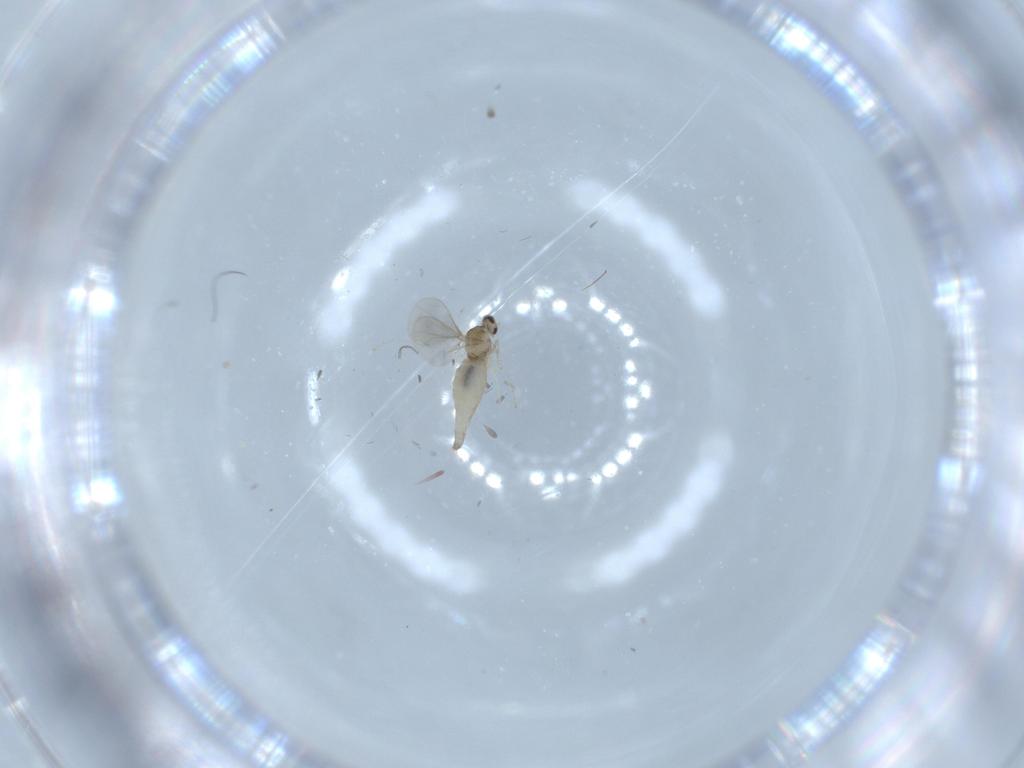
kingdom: Animalia
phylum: Arthropoda
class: Insecta
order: Diptera
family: Cecidomyiidae
